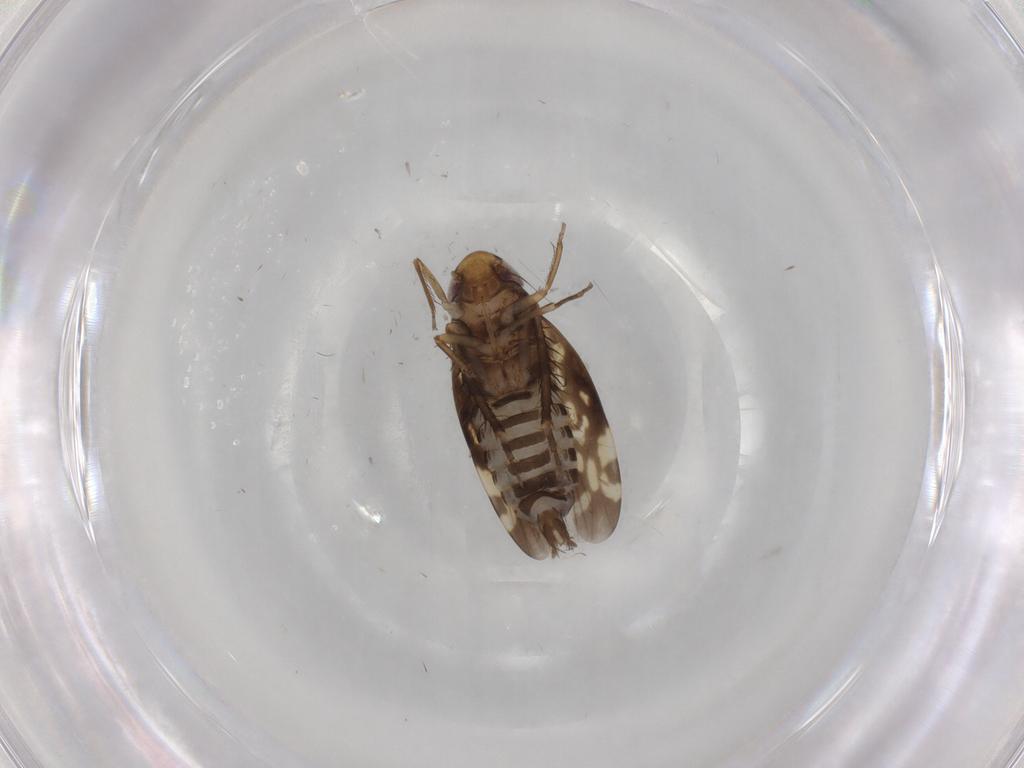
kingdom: Animalia
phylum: Arthropoda
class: Insecta
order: Hemiptera
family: Cicadellidae
